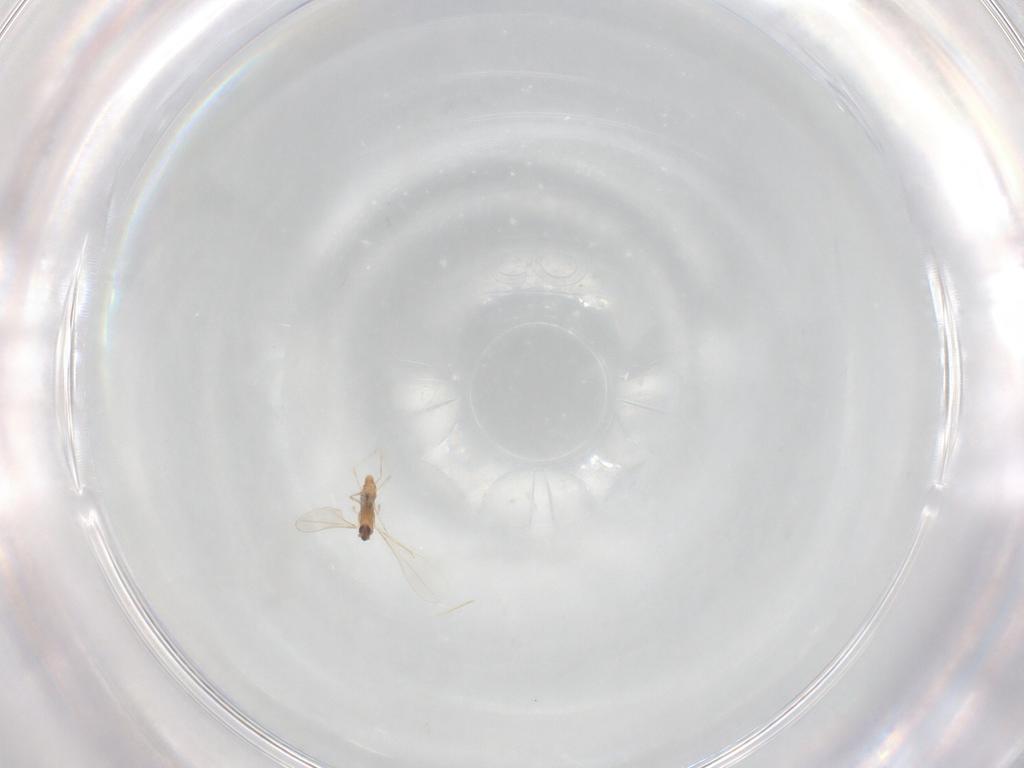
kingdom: Animalia
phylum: Arthropoda
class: Insecta
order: Diptera
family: Cecidomyiidae
